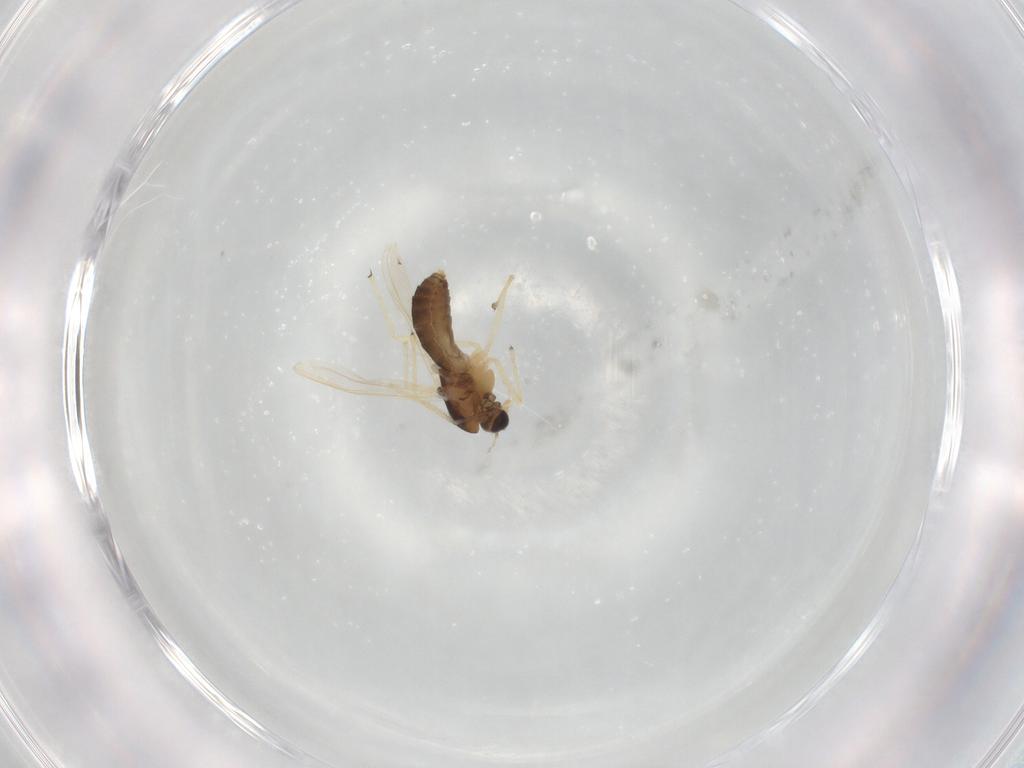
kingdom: Animalia
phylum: Arthropoda
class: Insecta
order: Diptera
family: Chironomidae
